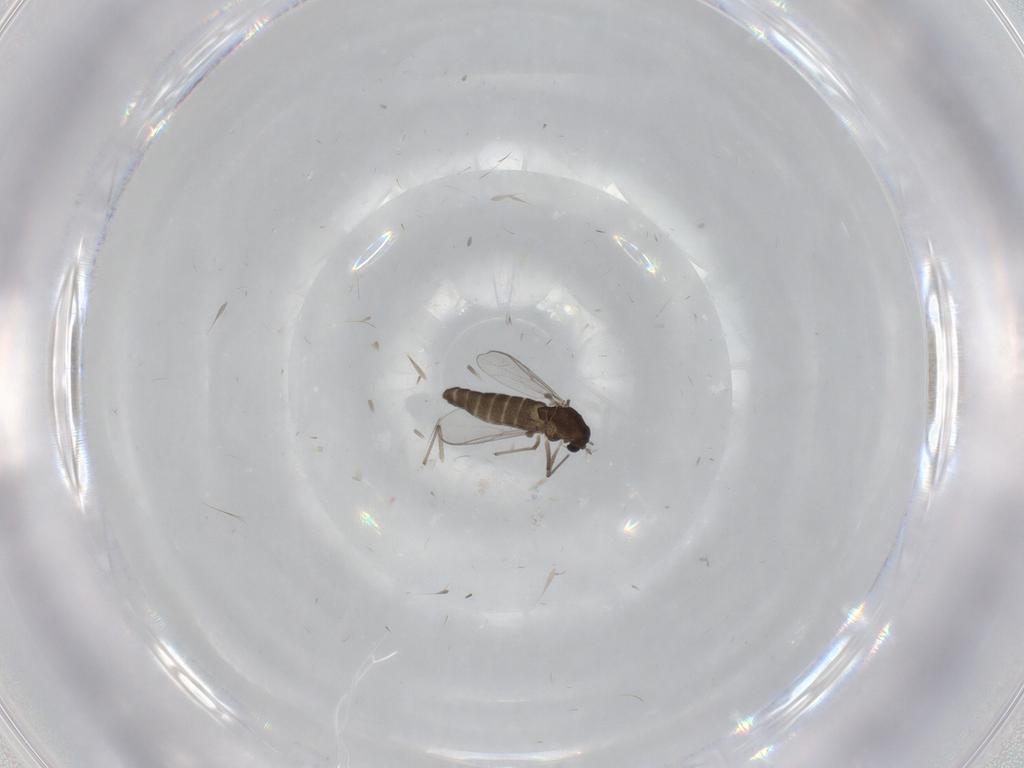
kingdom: Animalia
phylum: Arthropoda
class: Insecta
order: Diptera
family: Chironomidae
